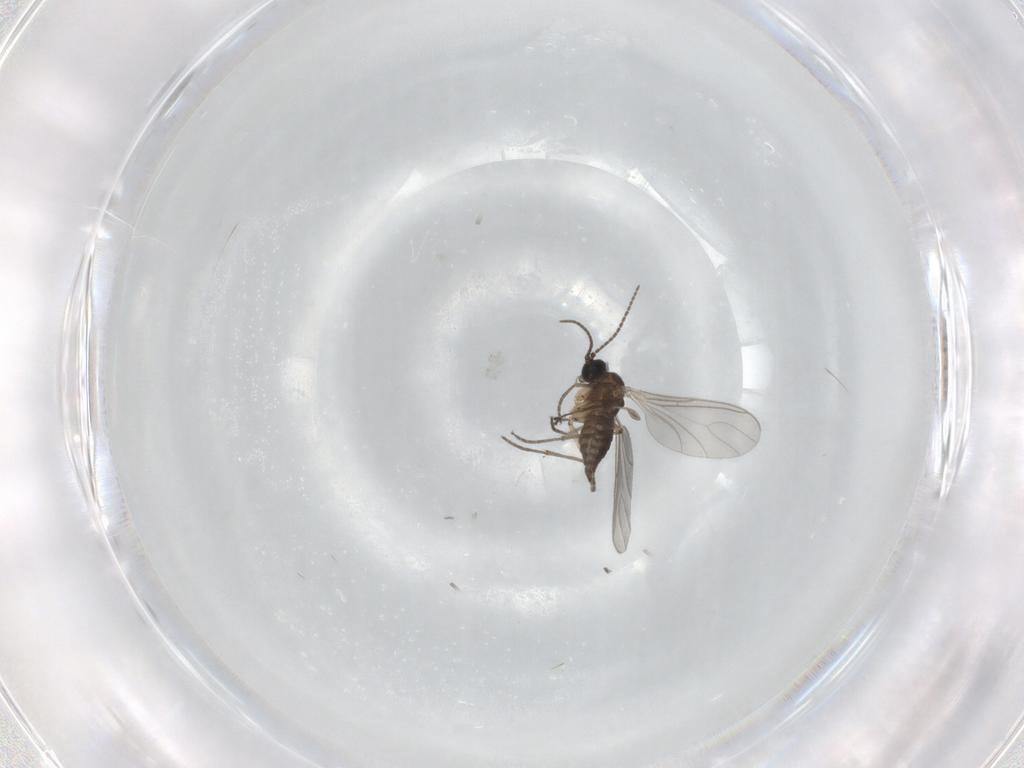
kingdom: Animalia
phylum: Arthropoda
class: Insecta
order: Diptera
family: Chironomidae
